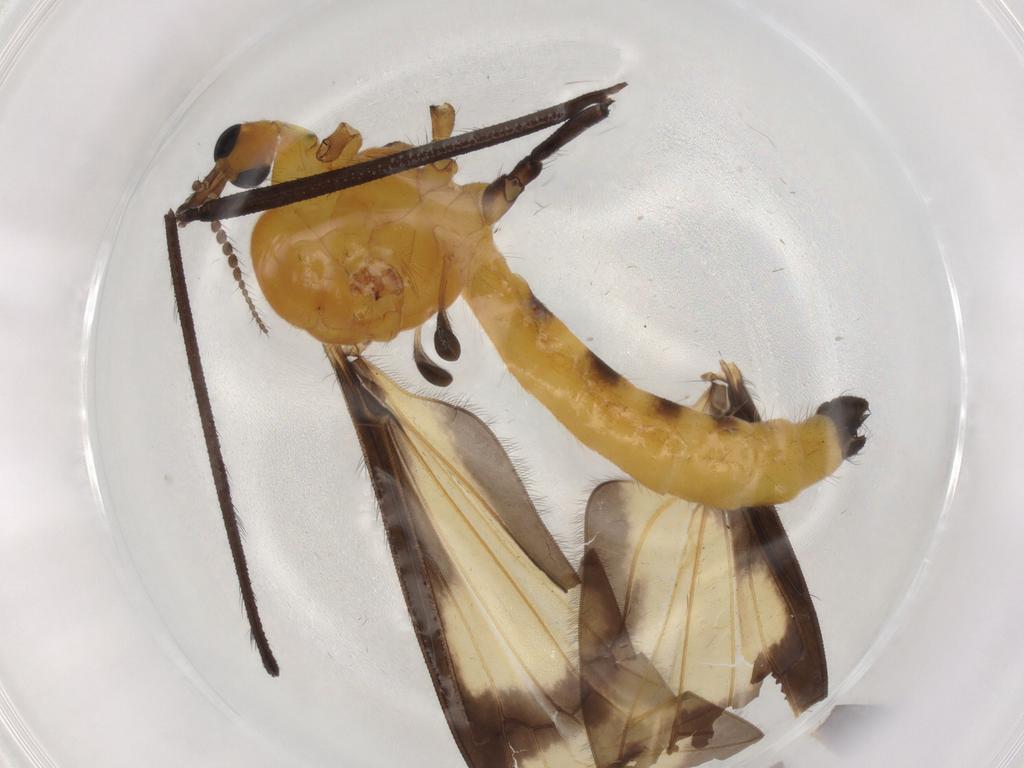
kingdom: Animalia
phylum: Arthropoda
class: Insecta
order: Diptera
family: Limoniidae
